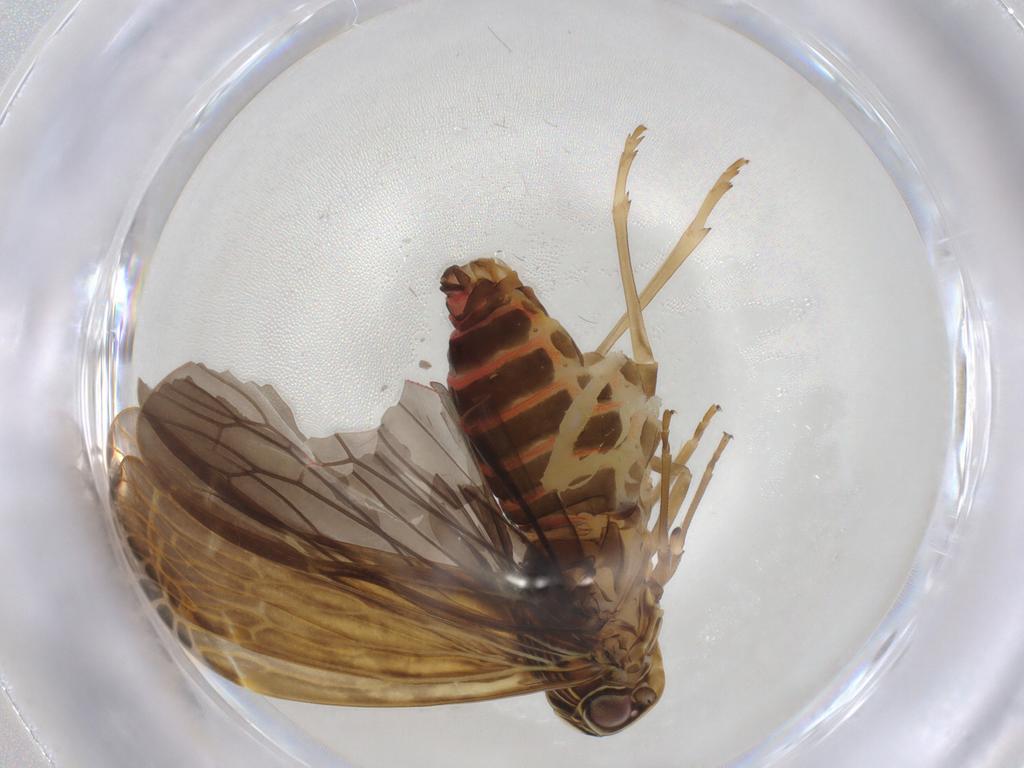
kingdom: Animalia
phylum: Arthropoda
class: Insecta
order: Hemiptera
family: Achilidae
